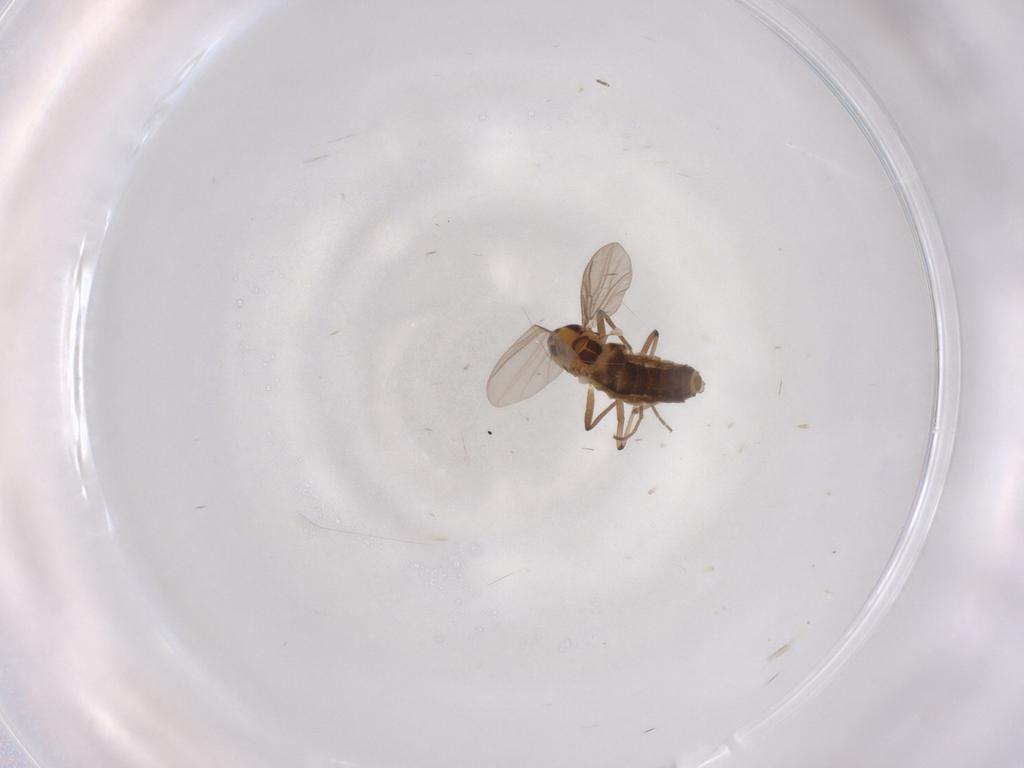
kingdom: Animalia
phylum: Arthropoda
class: Insecta
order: Diptera
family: Chironomidae
